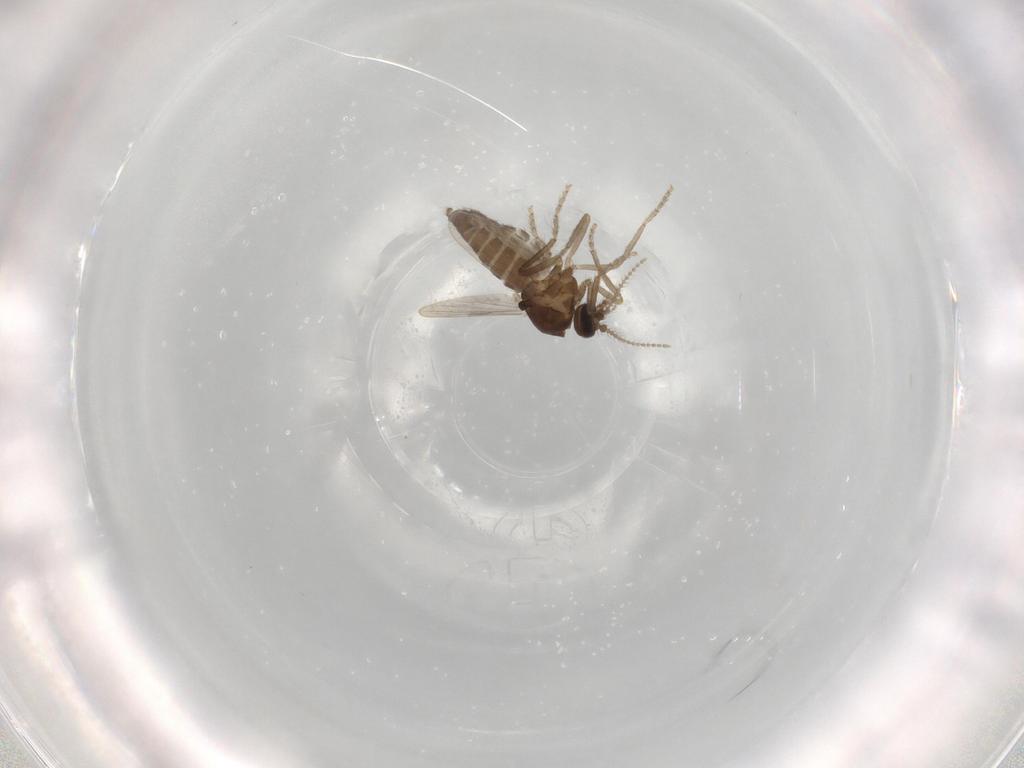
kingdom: Animalia
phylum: Arthropoda
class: Insecta
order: Diptera
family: Ceratopogonidae
